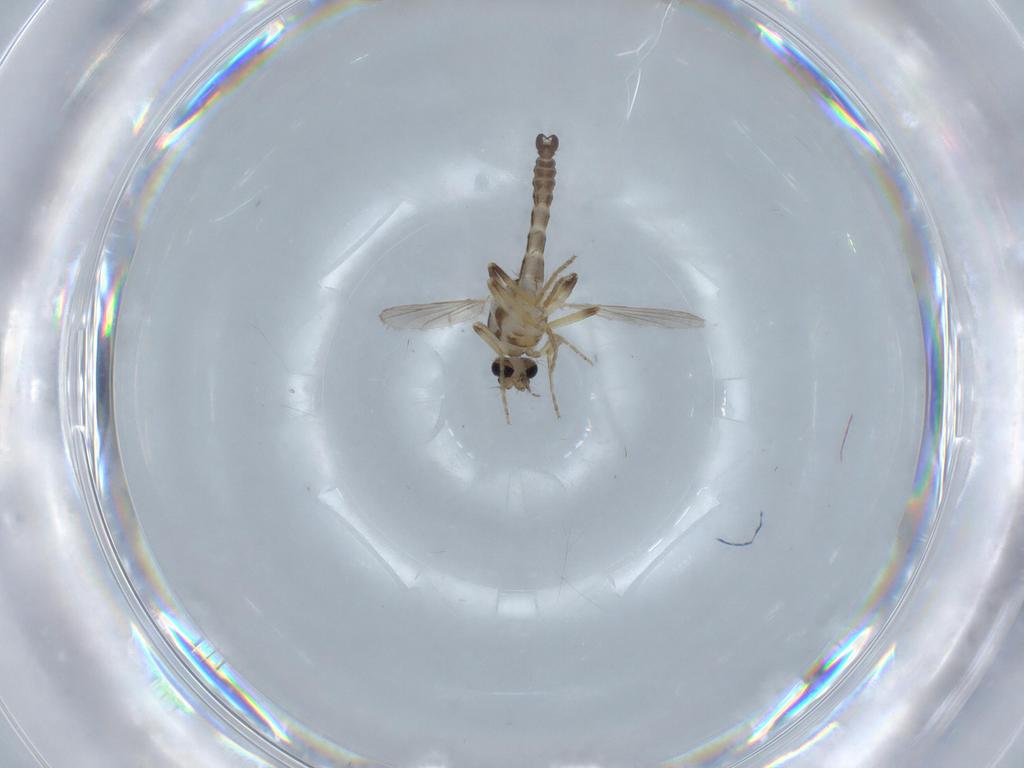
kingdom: Animalia
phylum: Arthropoda
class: Insecta
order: Diptera
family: Ceratopogonidae
